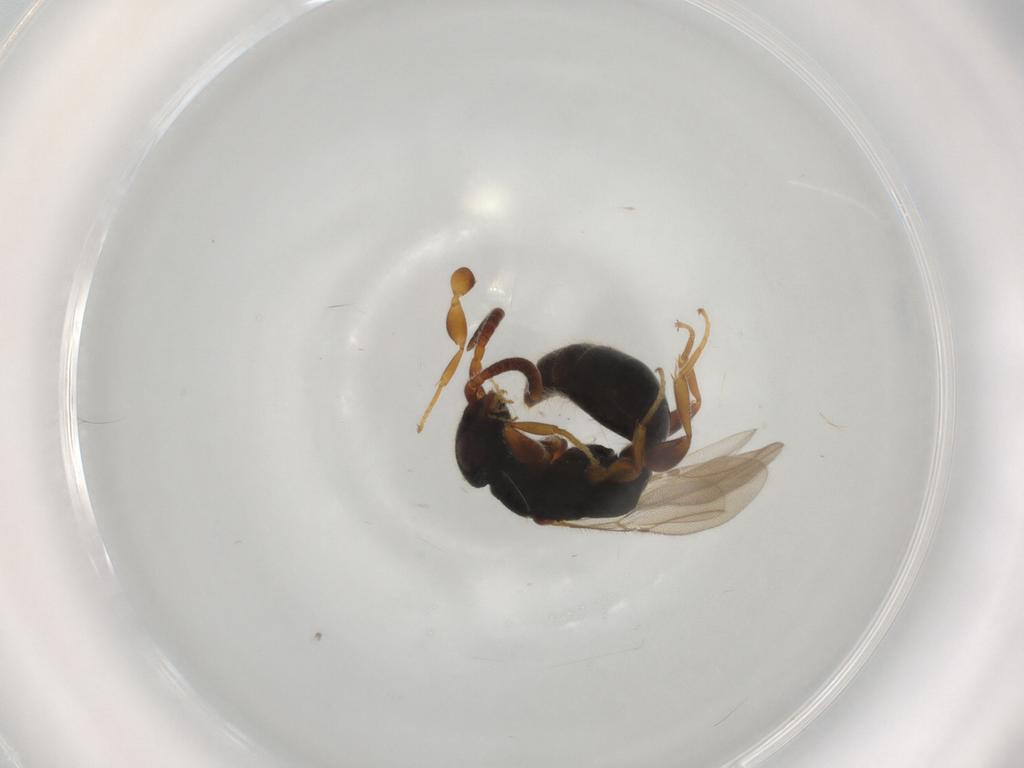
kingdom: Animalia
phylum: Arthropoda
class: Insecta
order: Hymenoptera
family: Bethylidae
